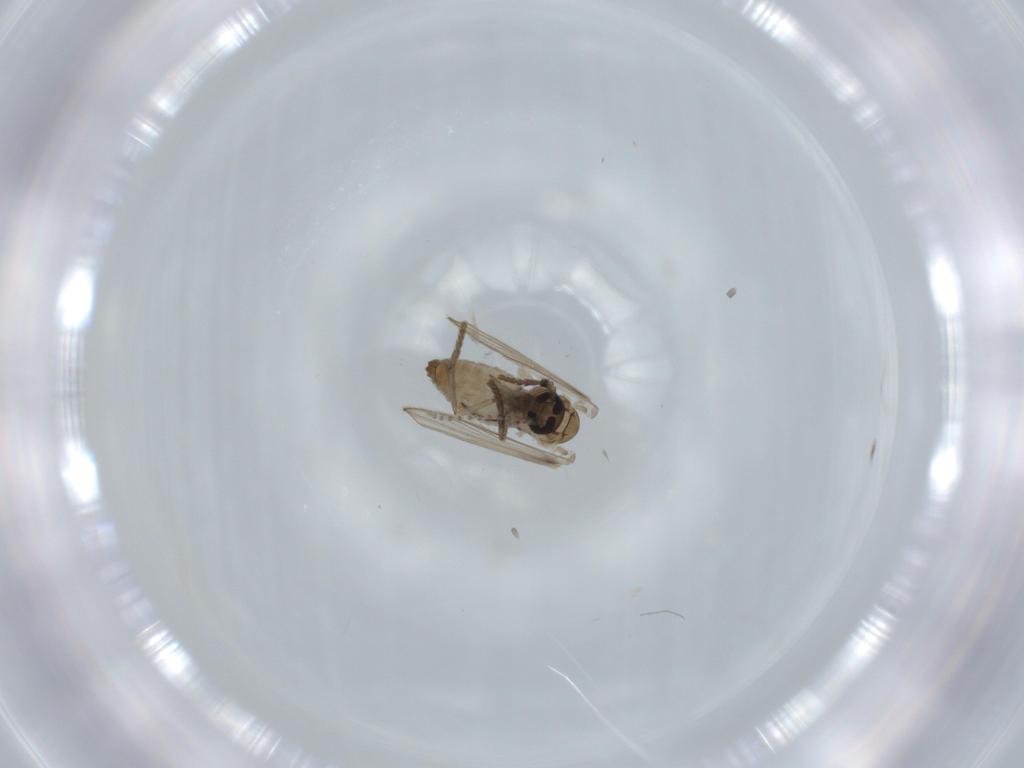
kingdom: Animalia
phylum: Arthropoda
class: Insecta
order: Diptera
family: Psychodidae
